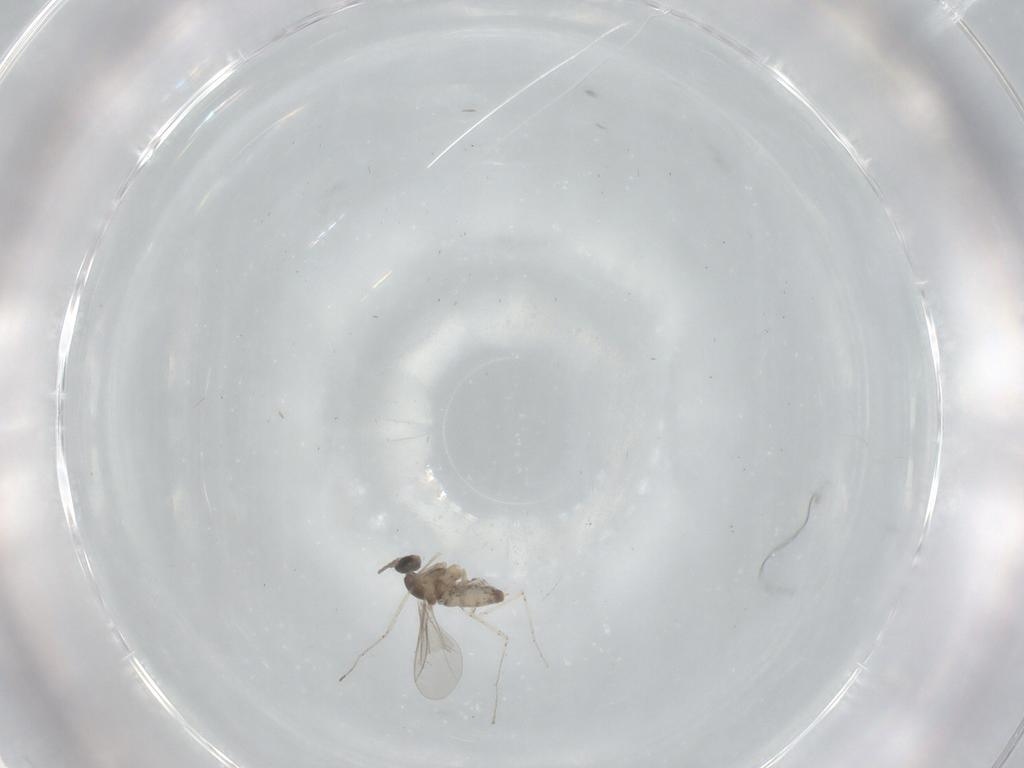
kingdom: Animalia
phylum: Arthropoda
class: Insecta
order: Diptera
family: Cecidomyiidae
